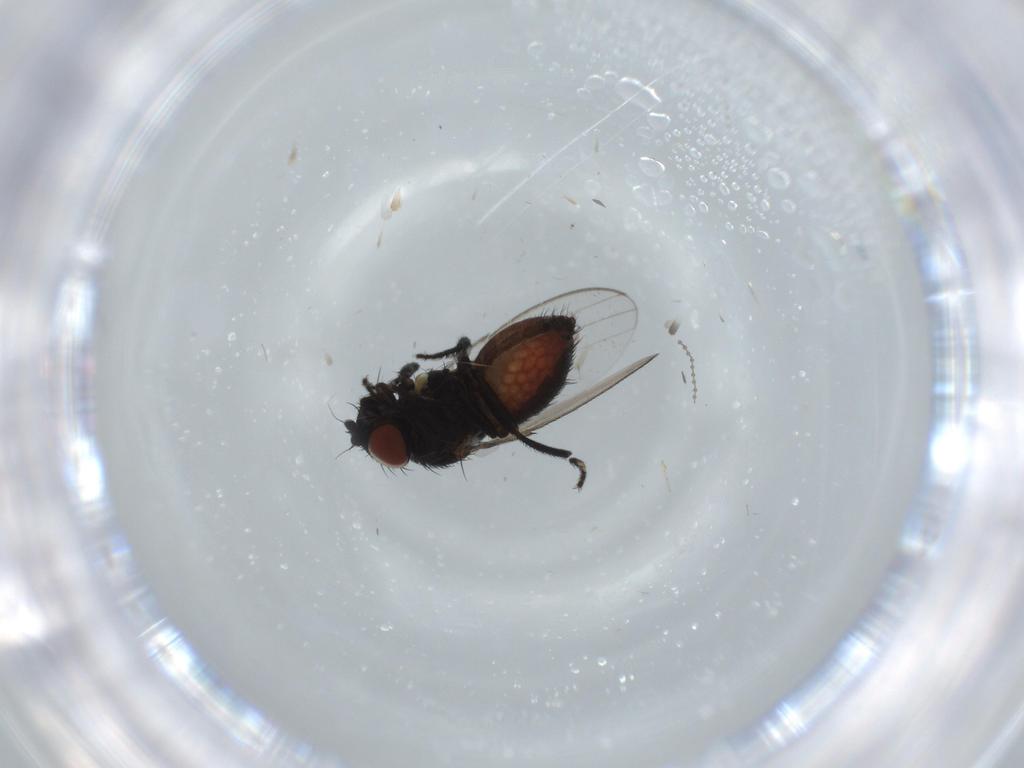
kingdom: Animalia
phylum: Arthropoda
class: Insecta
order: Diptera
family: Milichiidae
